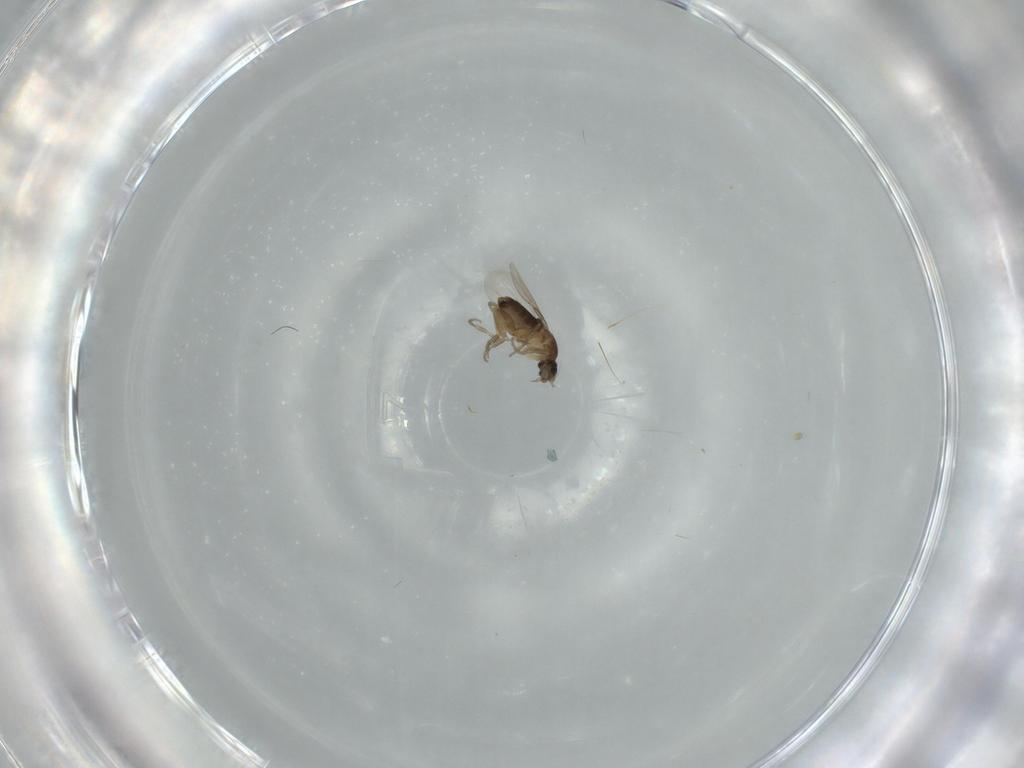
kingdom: Animalia
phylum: Arthropoda
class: Insecta
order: Diptera
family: Phoridae
